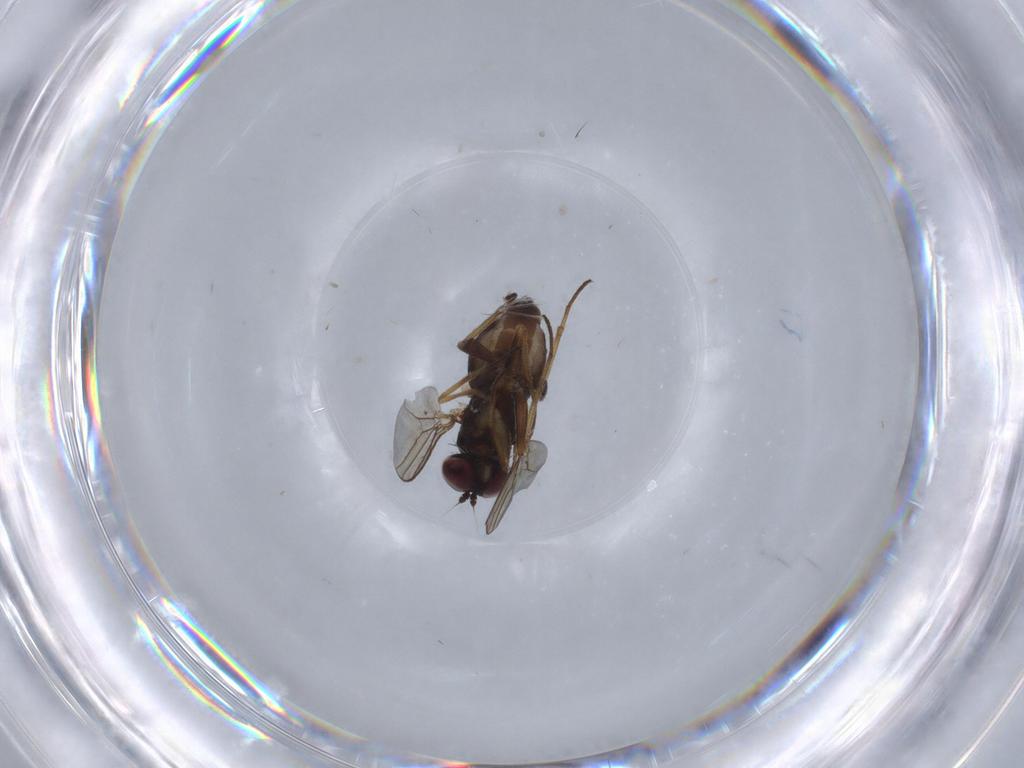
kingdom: Animalia
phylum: Arthropoda
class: Insecta
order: Diptera
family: Dolichopodidae
